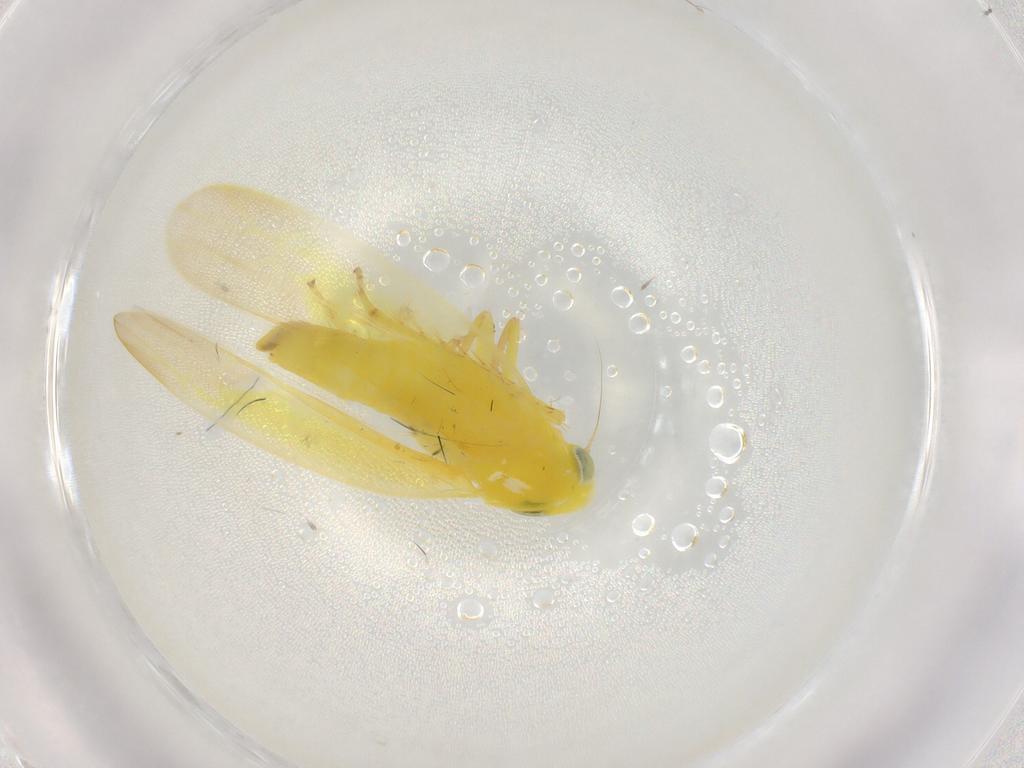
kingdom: Animalia
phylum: Arthropoda
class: Insecta
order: Hemiptera
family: Cicadellidae
